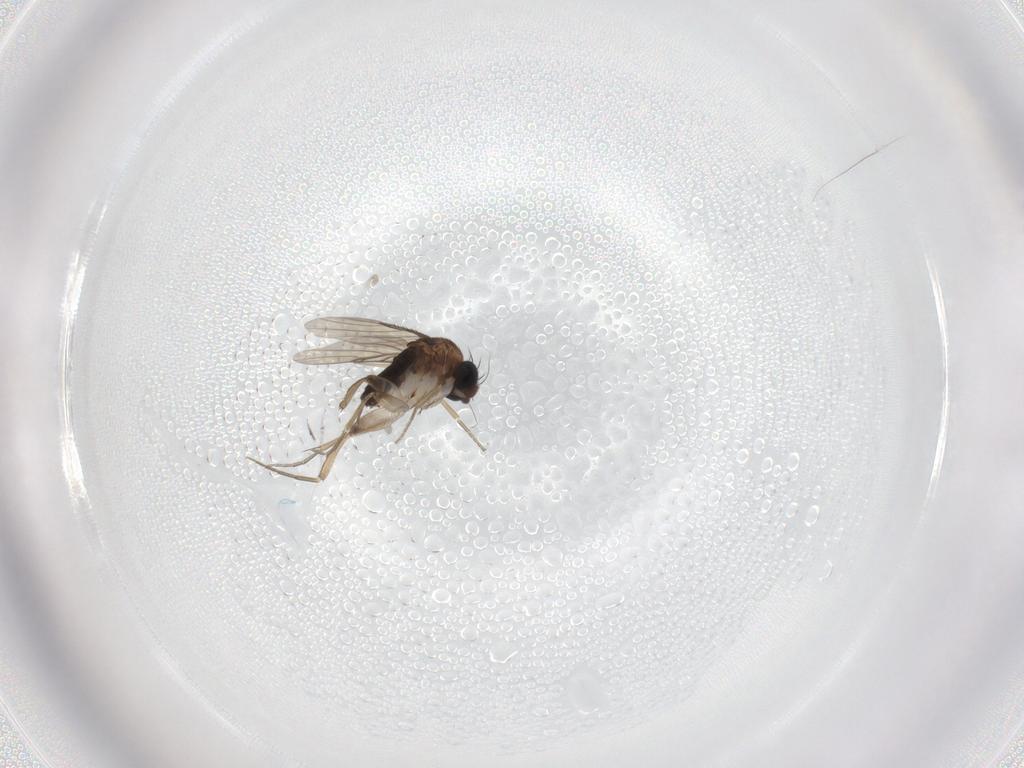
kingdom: Animalia
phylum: Arthropoda
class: Insecta
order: Diptera
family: Phoridae
